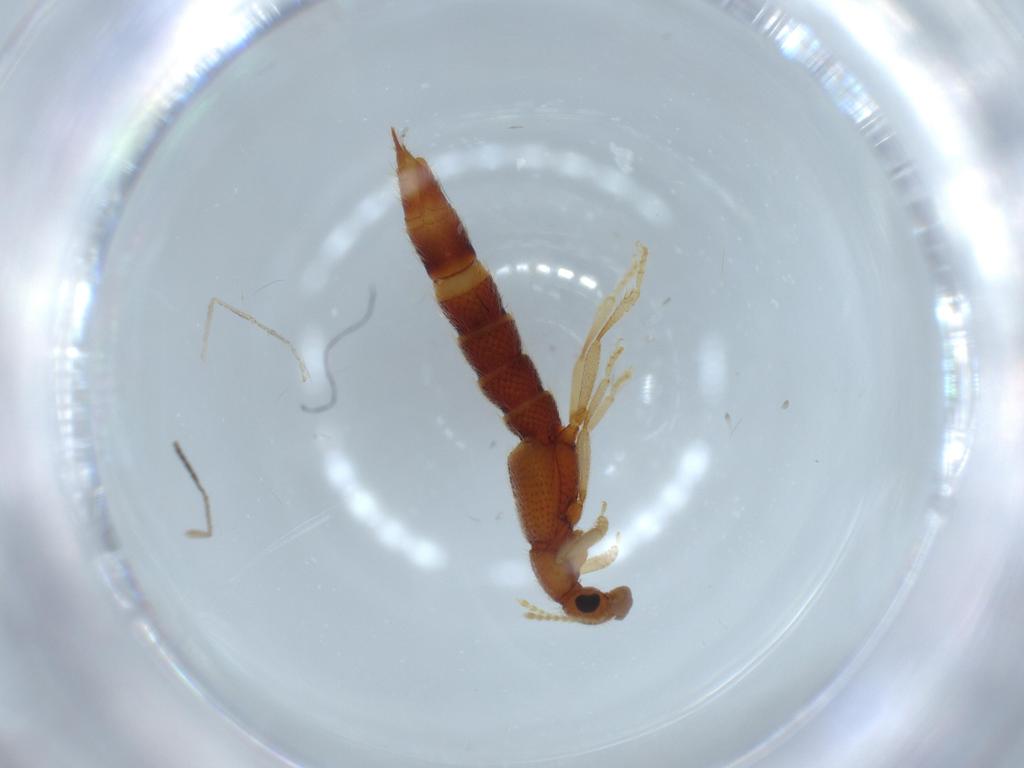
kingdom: Animalia
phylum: Arthropoda
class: Insecta
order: Coleoptera
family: Staphylinidae
